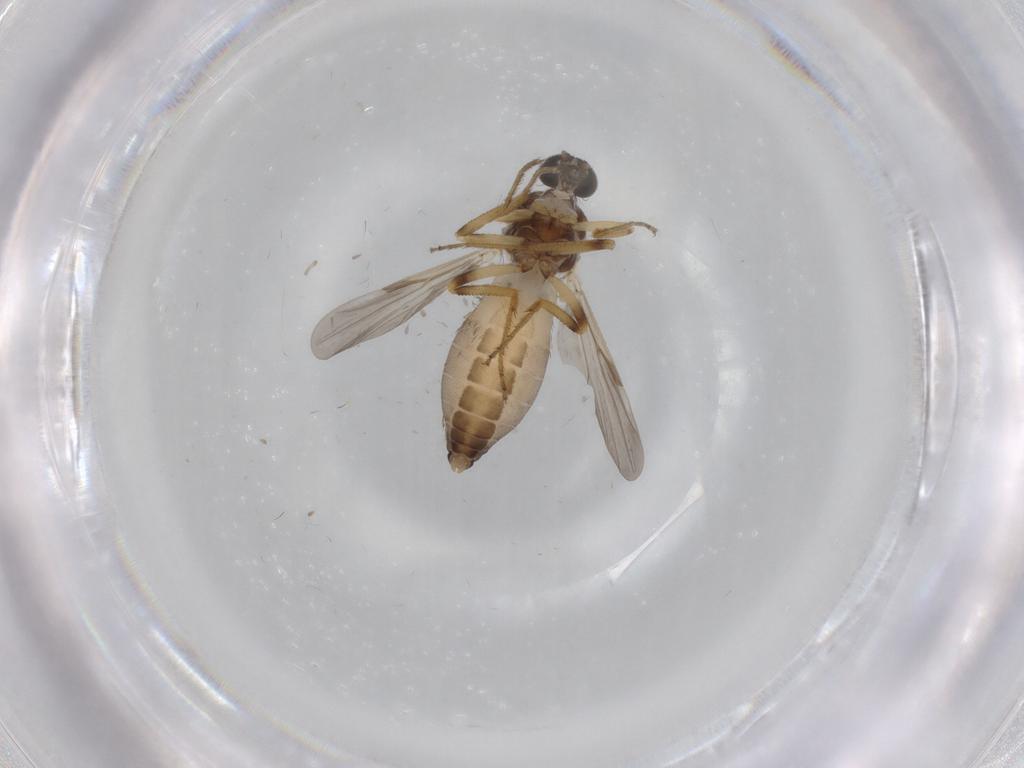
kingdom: Animalia
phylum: Arthropoda
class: Insecta
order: Diptera
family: Ceratopogonidae
